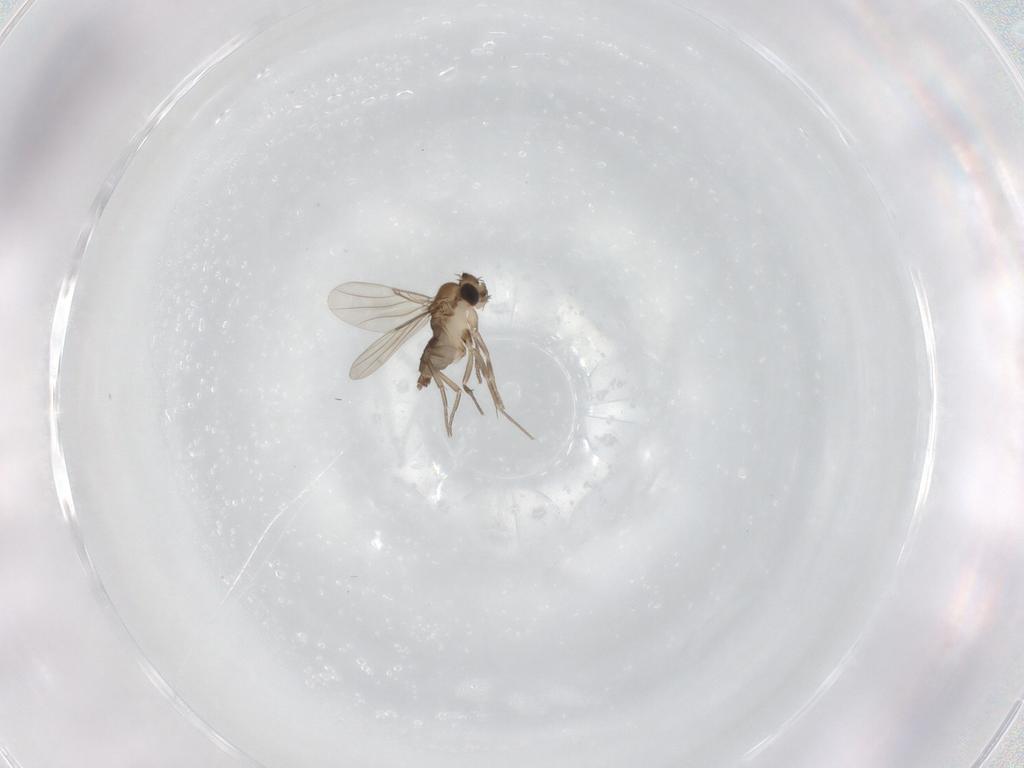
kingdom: Animalia
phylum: Arthropoda
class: Insecta
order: Diptera
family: Phoridae
